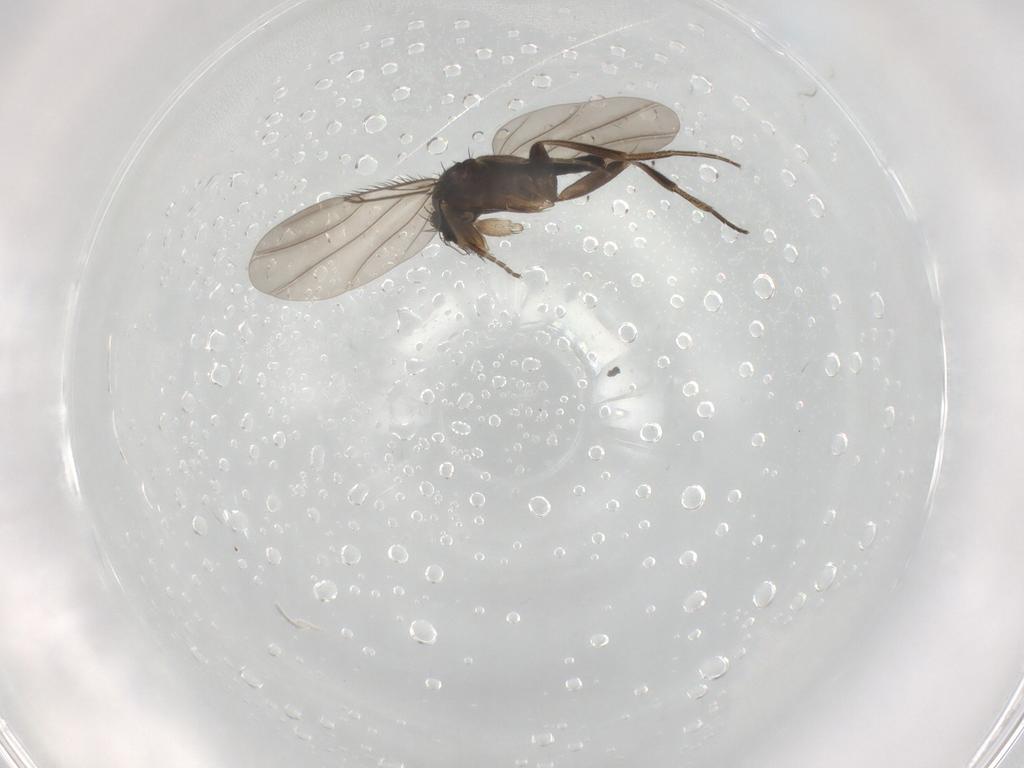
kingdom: Animalia
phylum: Arthropoda
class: Insecta
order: Diptera
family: Phoridae
